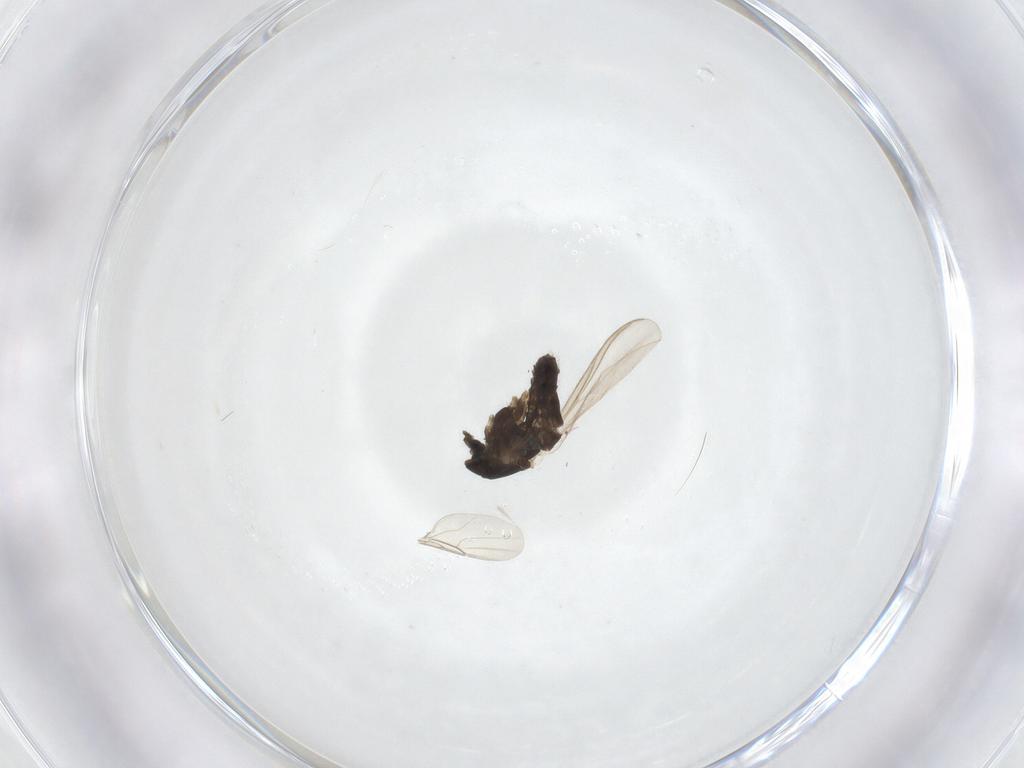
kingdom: Animalia
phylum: Arthropoda
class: Insecta
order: Diptera
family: Chironomidae
